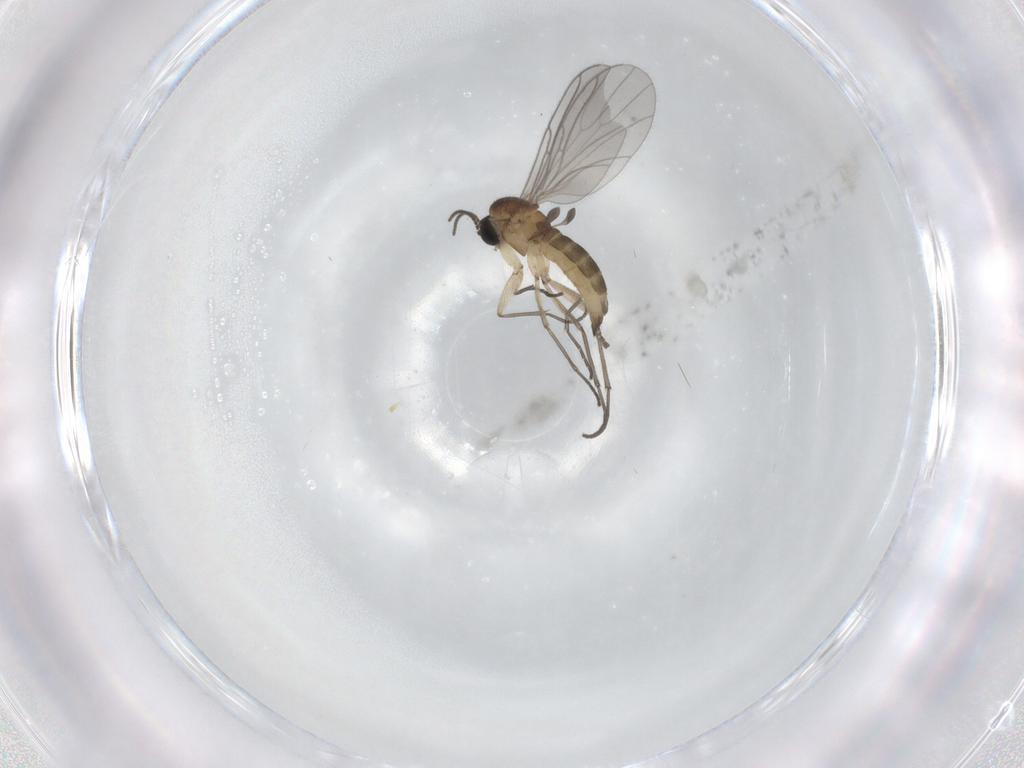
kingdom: Animalia
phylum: Arthropoda
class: Insecta
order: Diptera
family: Sciaridae
